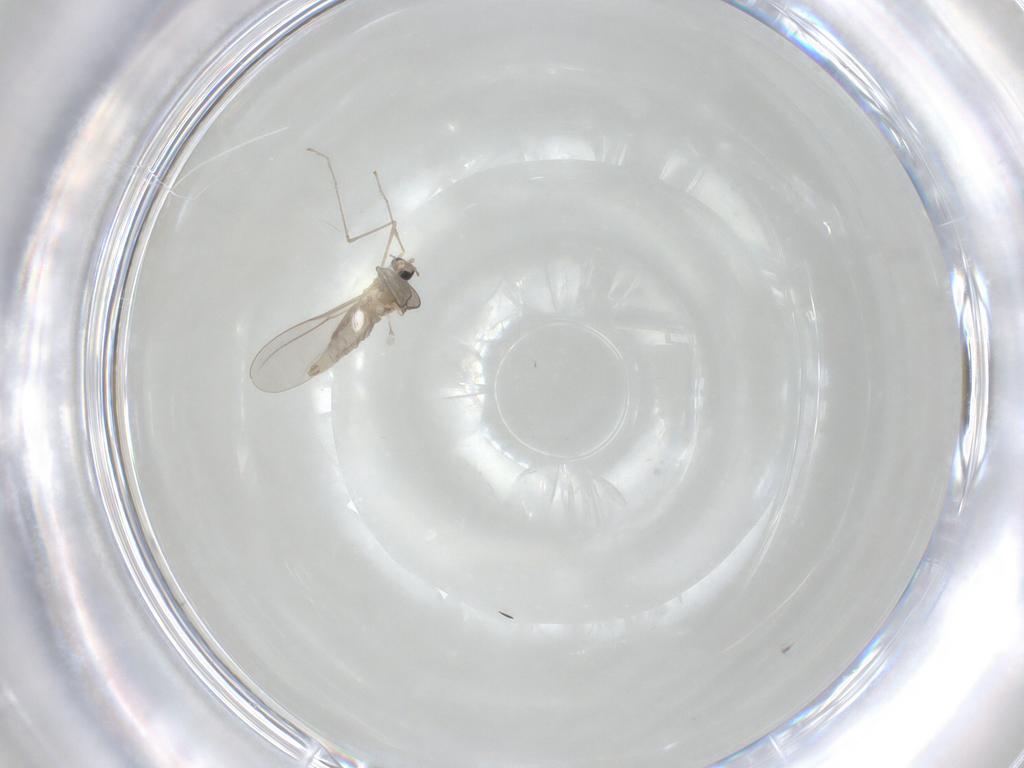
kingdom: Animalia
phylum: Arthropoda
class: Insecta
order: Diptera
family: Cecidomyiidae
